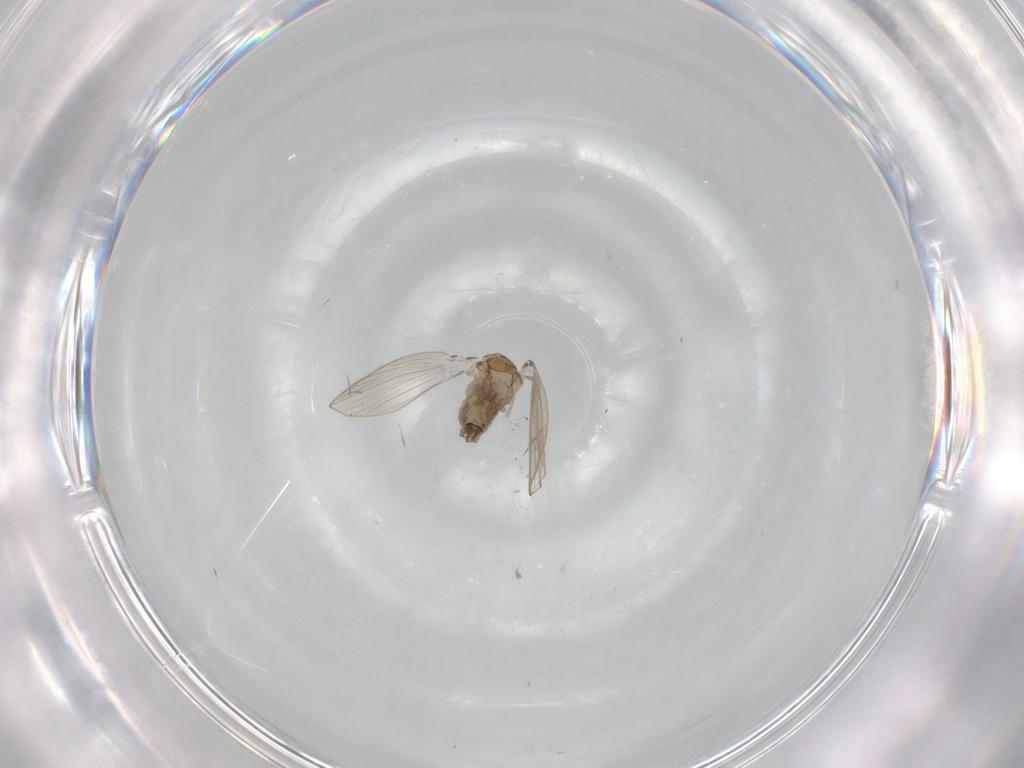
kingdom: Animalia
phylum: Arthropoda
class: Insecta
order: Diptera
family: Psychodidae
